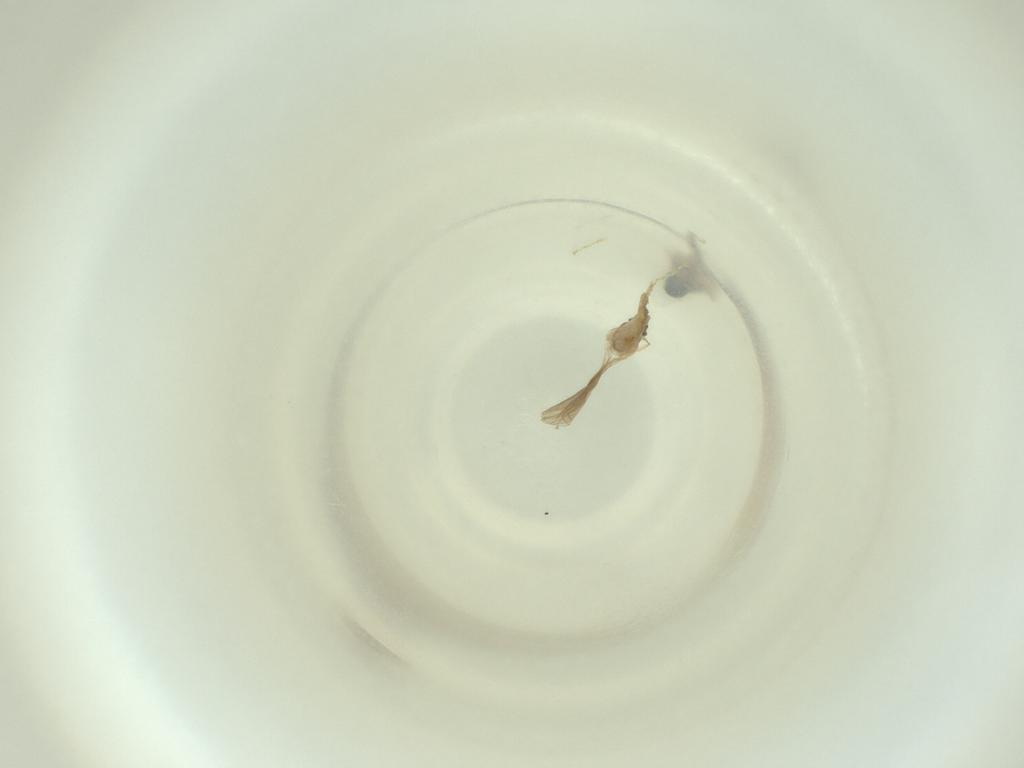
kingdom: Animalia
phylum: Arthropoda
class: Insecta
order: Diptera
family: Cecidomyiidae
